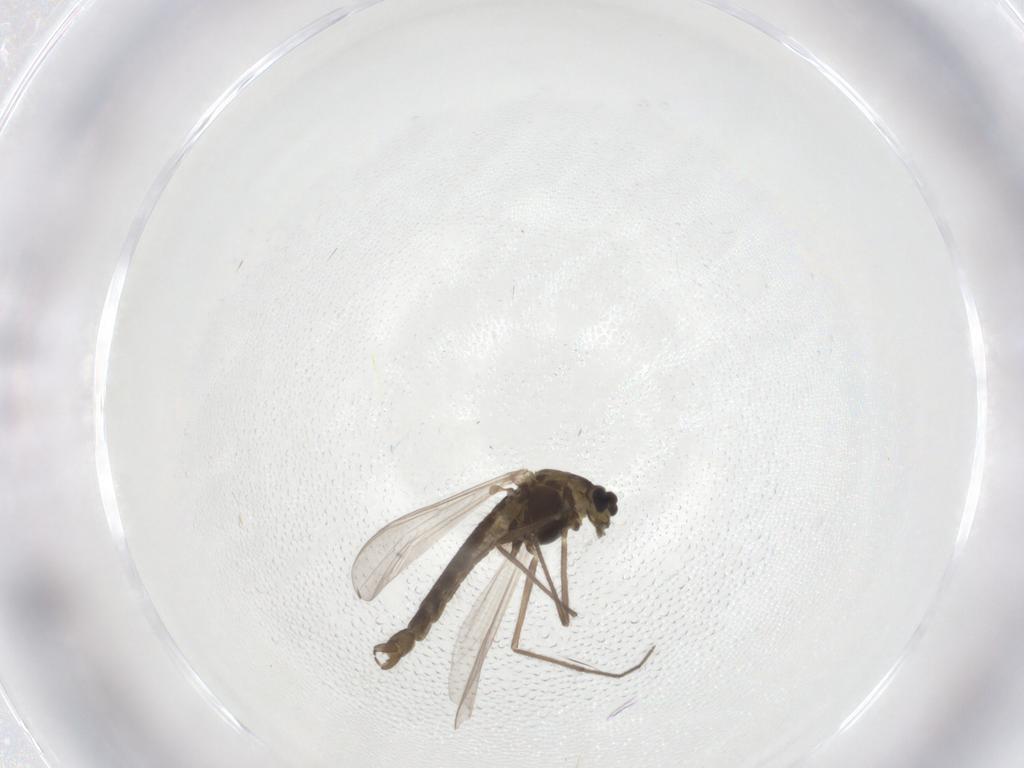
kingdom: Animalia
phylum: Arthropoda
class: Insecta
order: Diptera
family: Chironomidae
